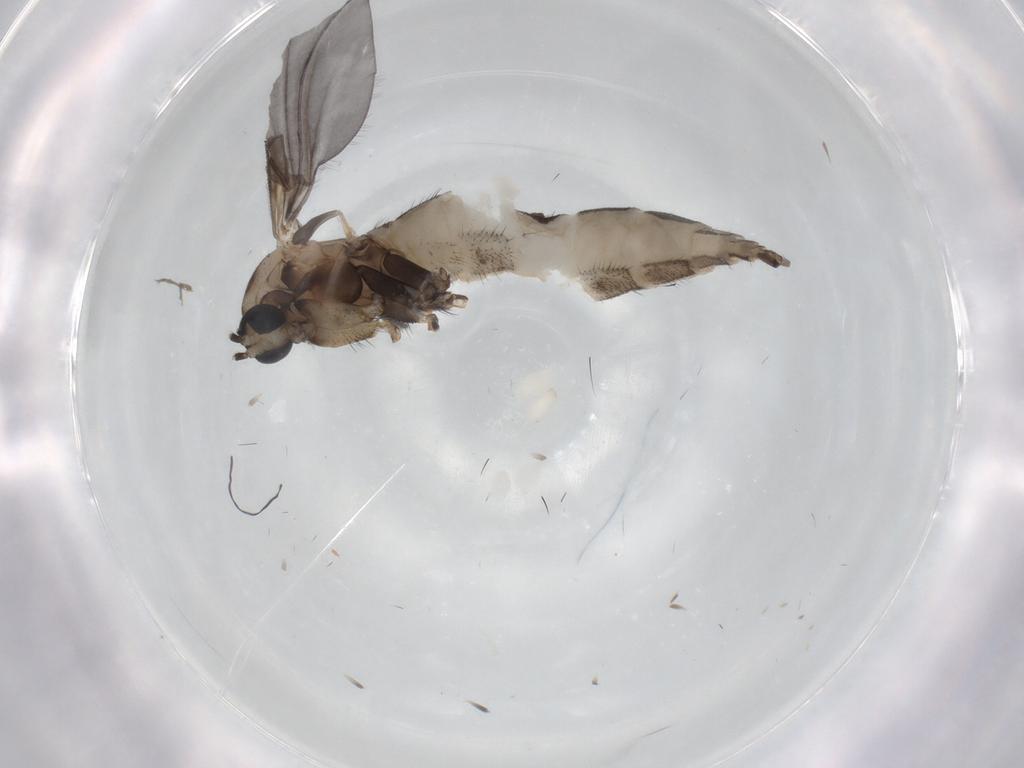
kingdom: Animalia
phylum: Arthropoda
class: Insecta
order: Diptera
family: Sciaridae
